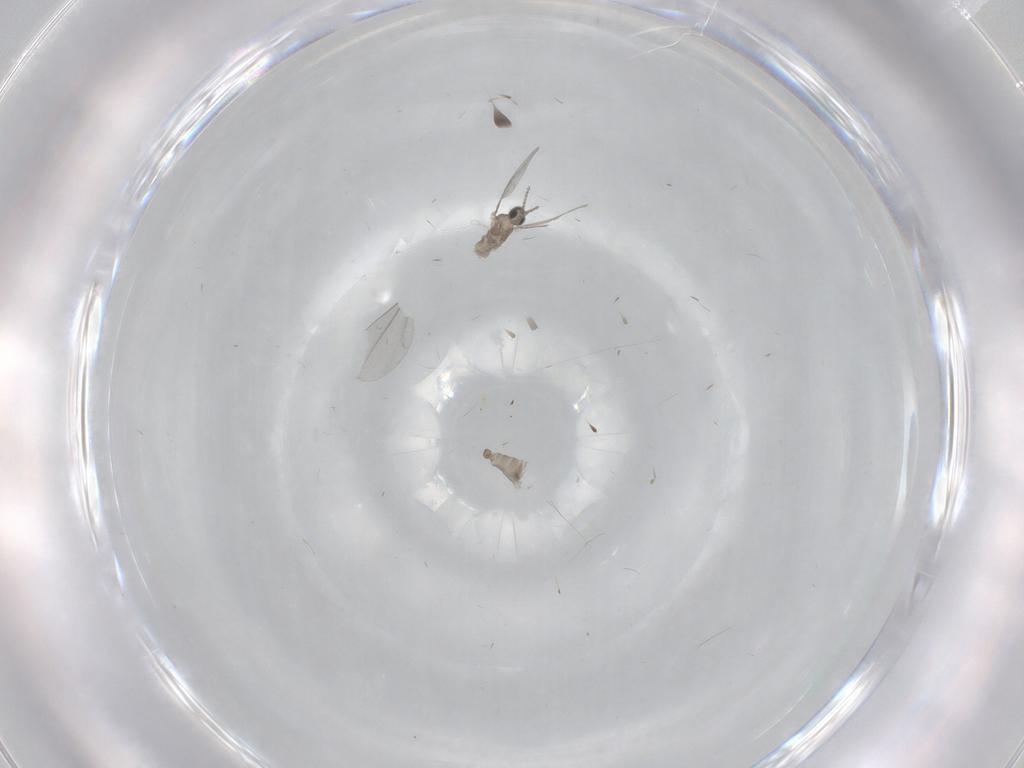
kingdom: Animalia
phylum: Arthropoda
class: Insecta
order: Diptera
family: Cecidomyiidae
